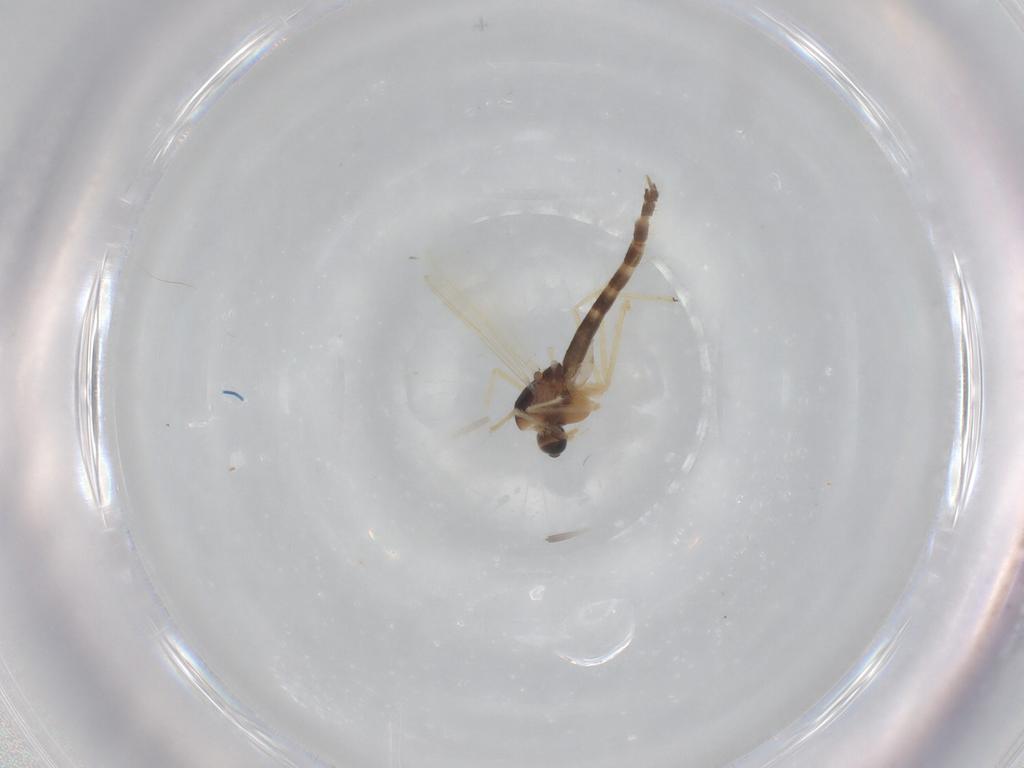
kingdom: Animalia
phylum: Arthropoda
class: Insecta
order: Diptera
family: Chironomidae
